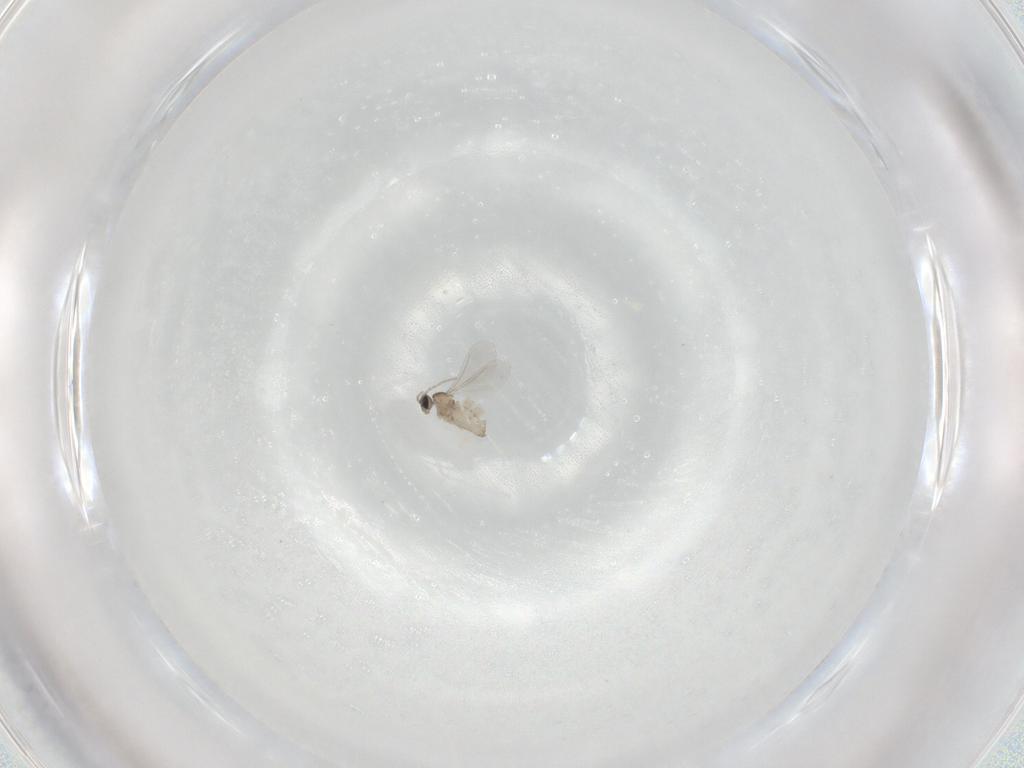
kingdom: Animalia
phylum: Arthropoda
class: Insecta
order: Diptera
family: Cecidomyiidae
